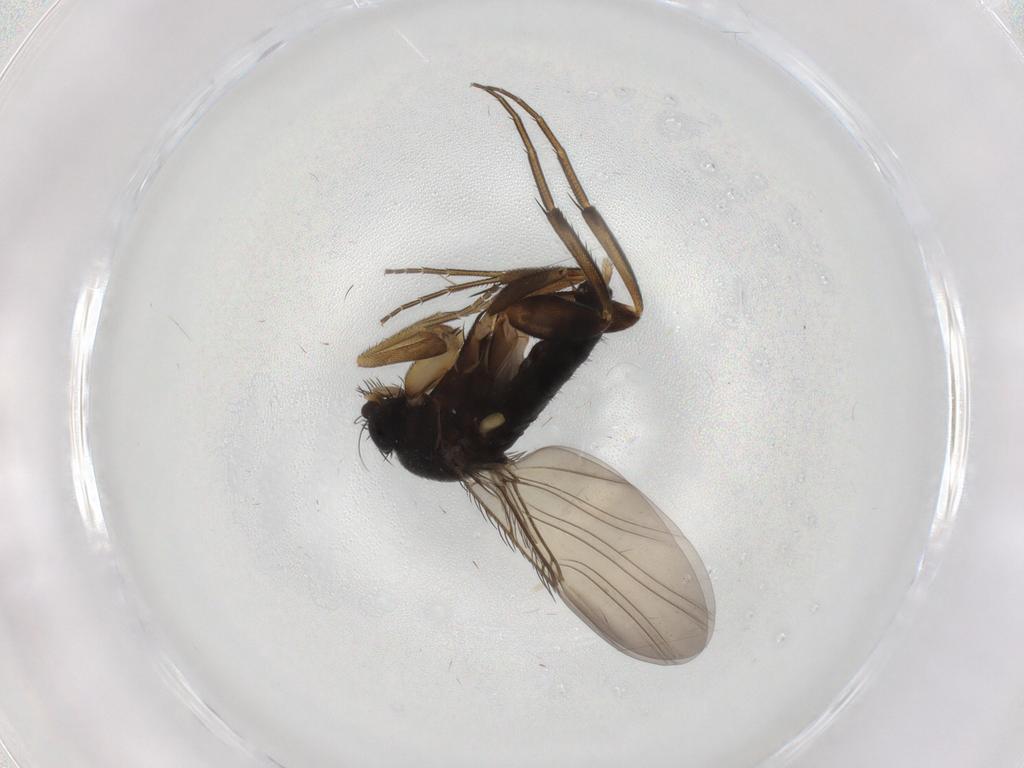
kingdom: Animalia
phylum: Arthropoda
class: Insecta
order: Diptera
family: Phoridae
